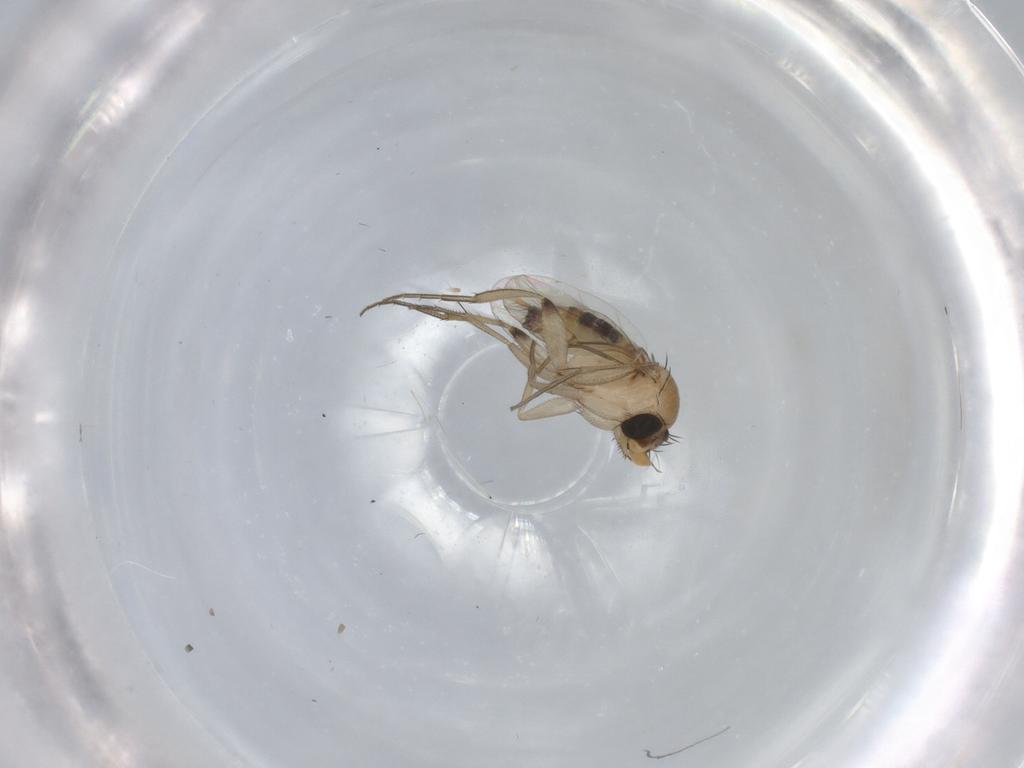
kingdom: Animalia
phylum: Arthropoda
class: Insecta
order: Diptera
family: Phoridae
